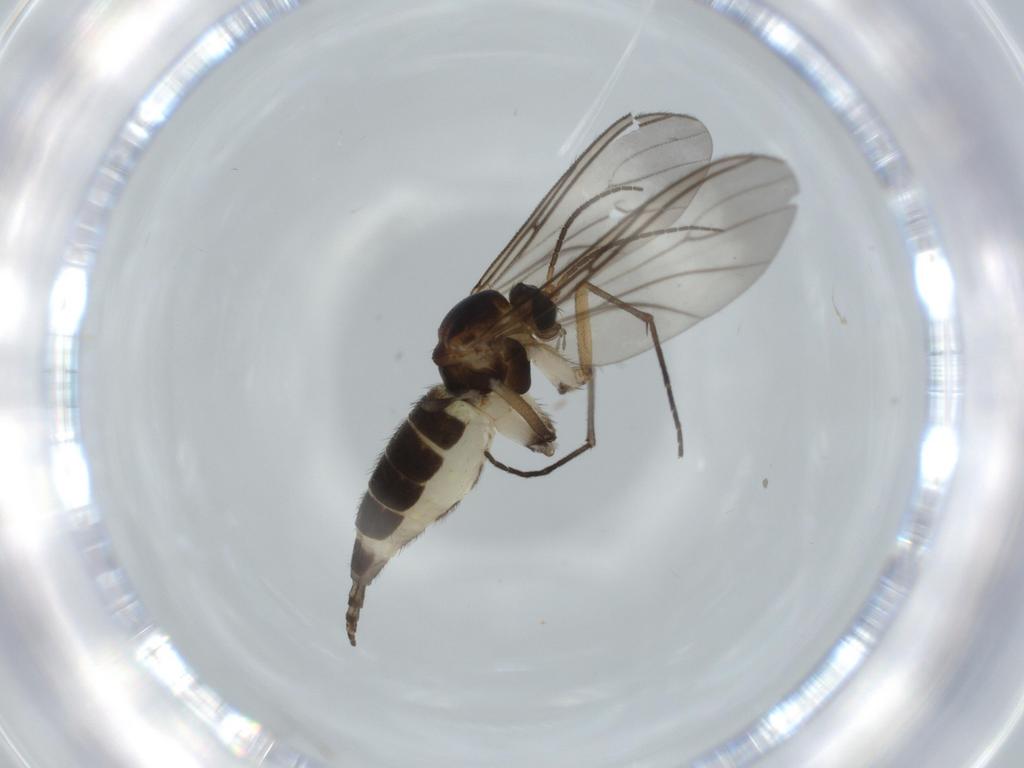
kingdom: Animalia
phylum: Arthropoda
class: Insecta
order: Diptera
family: Sciaridae
